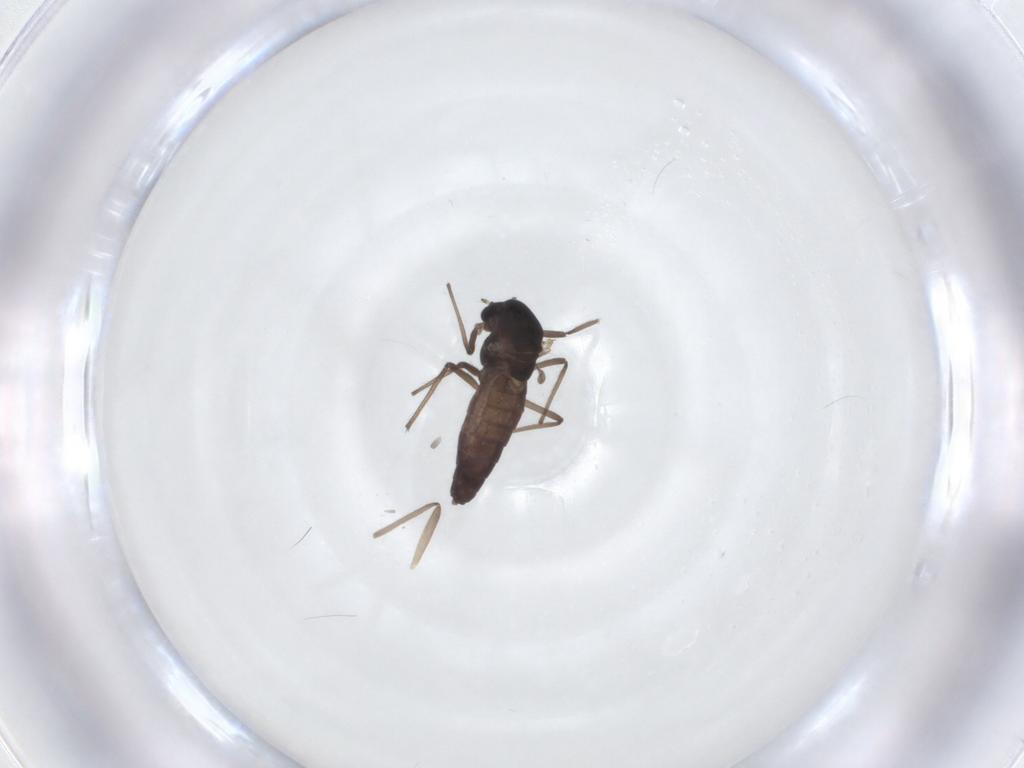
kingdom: Animalia
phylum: Arthropoda
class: Insecta
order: Diptera
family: Chironomidae
